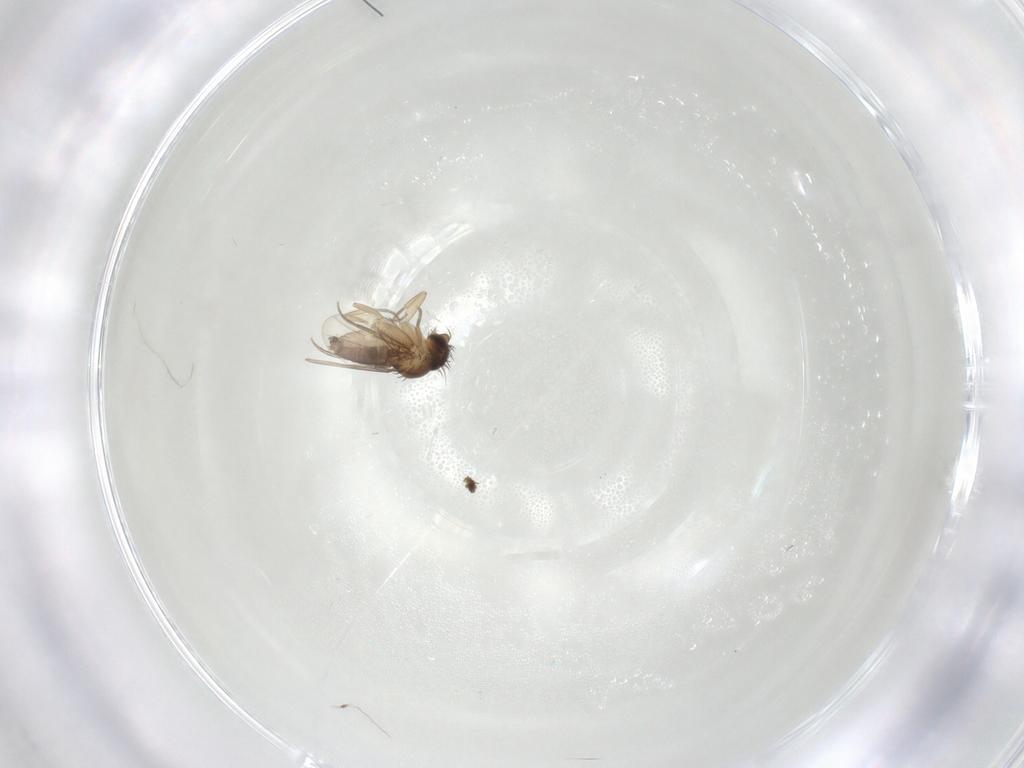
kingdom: Animalia
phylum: Arthropoda
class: Insecta
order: Diptera
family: Phoridae
